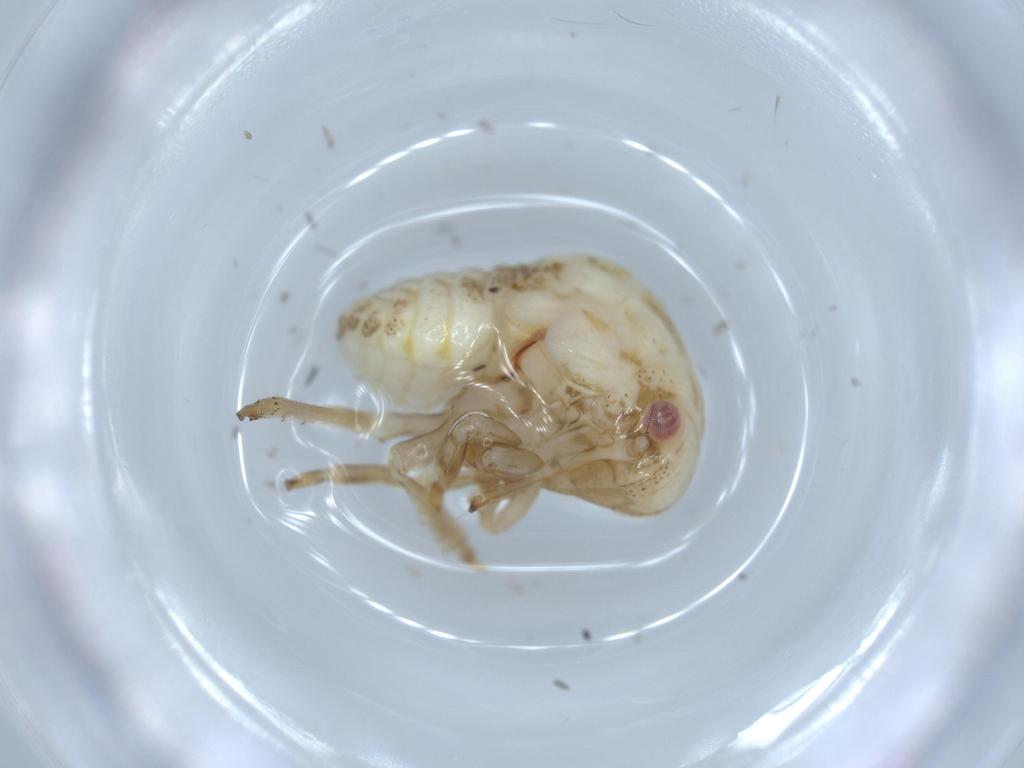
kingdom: Animalia
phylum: Arthropoda
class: Insecta
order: Hemiptera
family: Acanaloniidae
